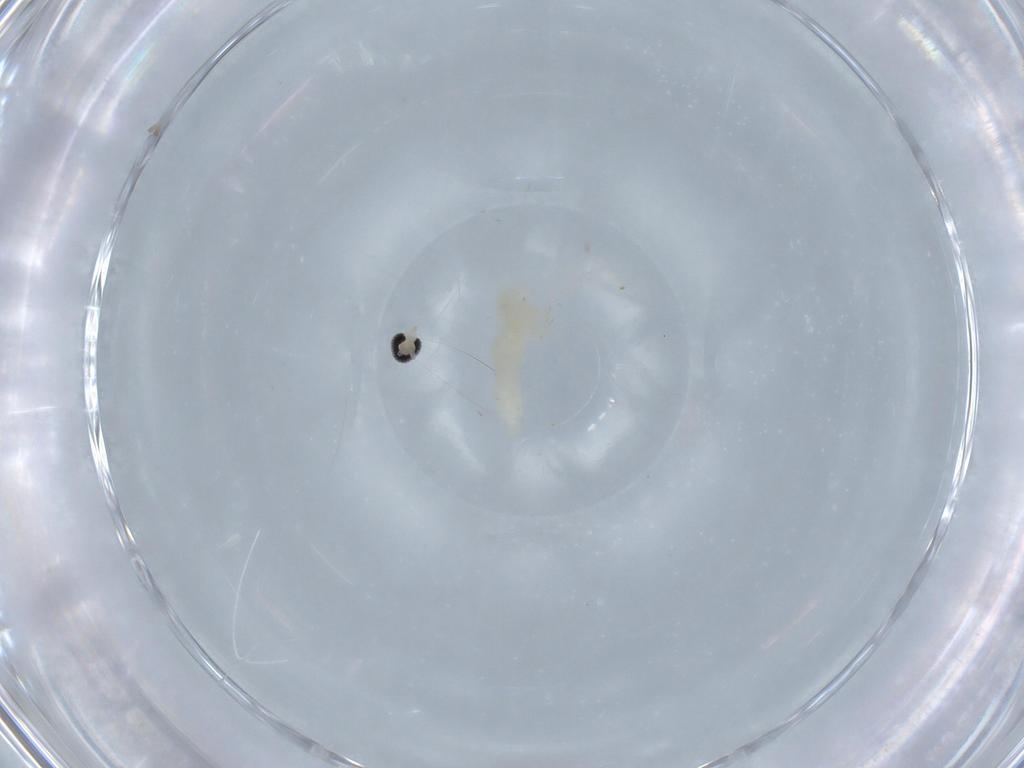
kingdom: Animalia
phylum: Arthropoda
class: Insecta
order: Diptera
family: Cecidomyiidae
